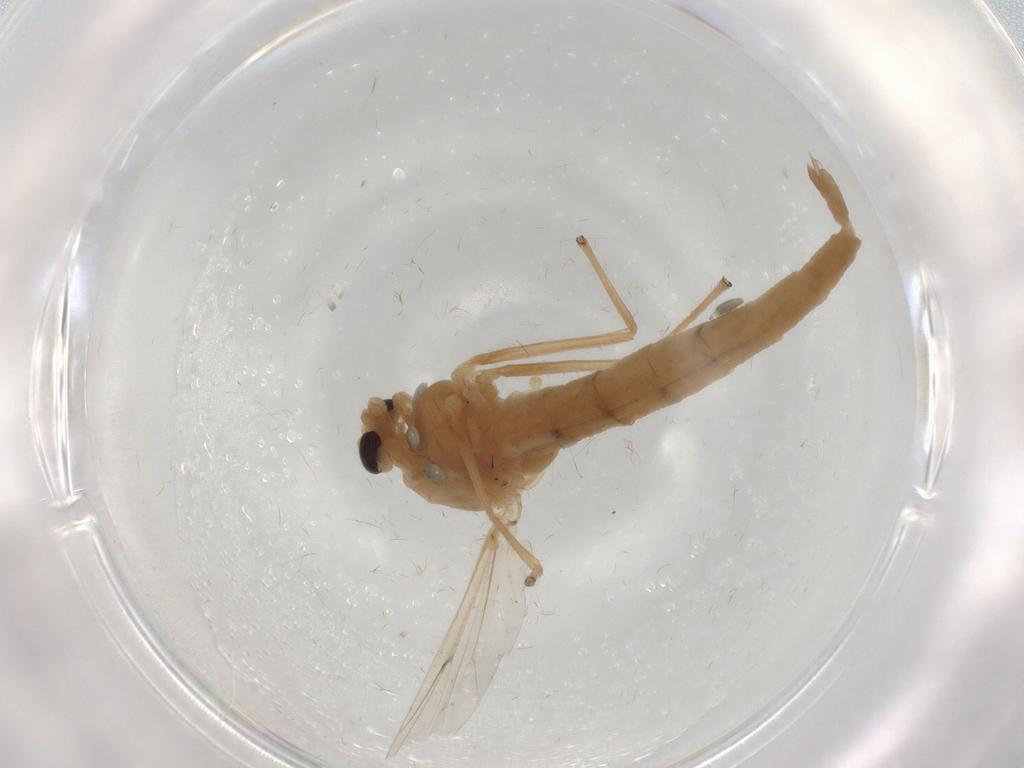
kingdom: Animalia
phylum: Arthropoda
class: Insecta
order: Diptera
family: Chironomidae
